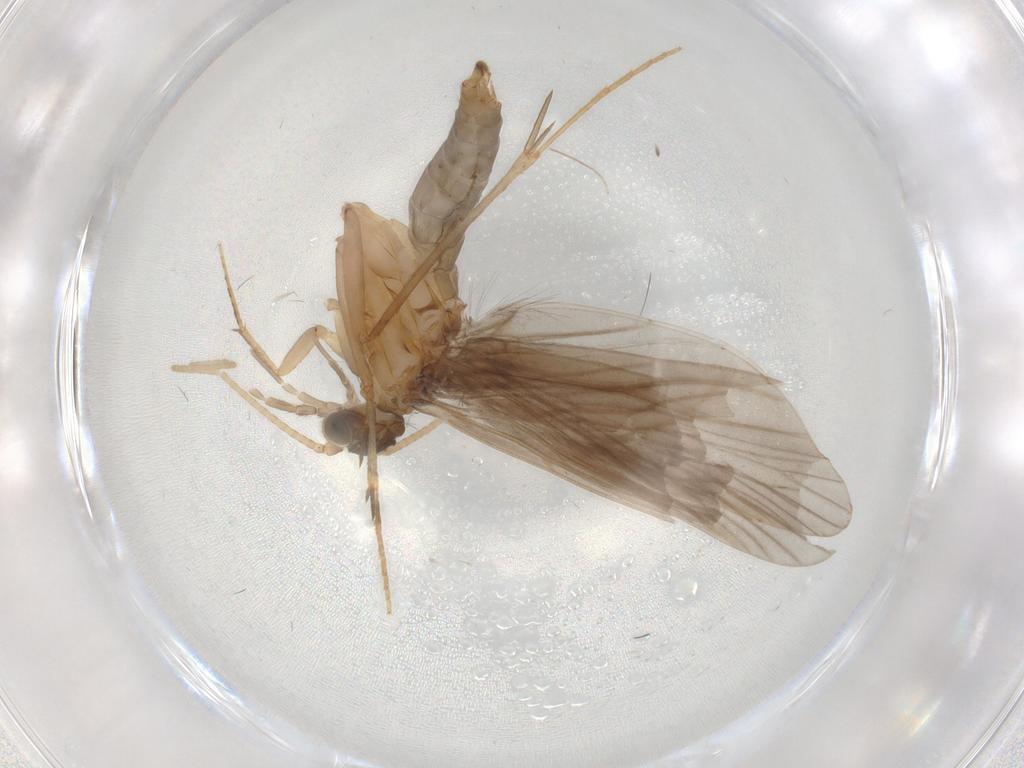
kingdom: Animalia
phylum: Arthropoda
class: Insecta
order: Trichoptera
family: Philopotamidae
